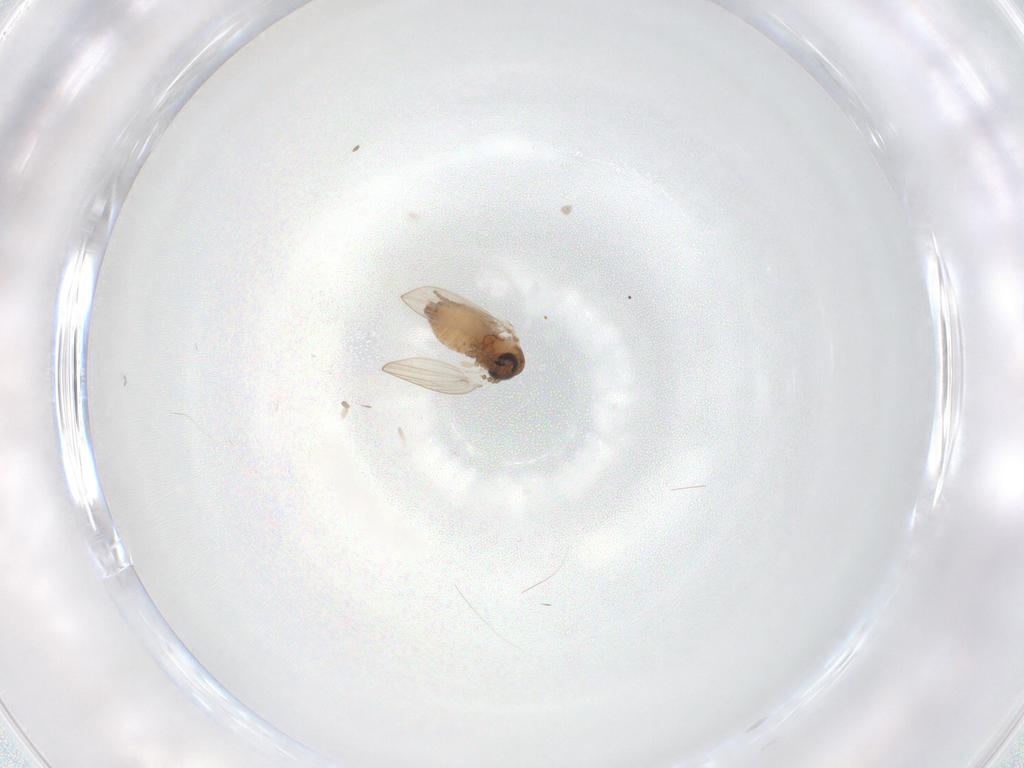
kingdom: Animalia
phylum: Arthropoda
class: Insecta
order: Diptera
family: Psychodidae
